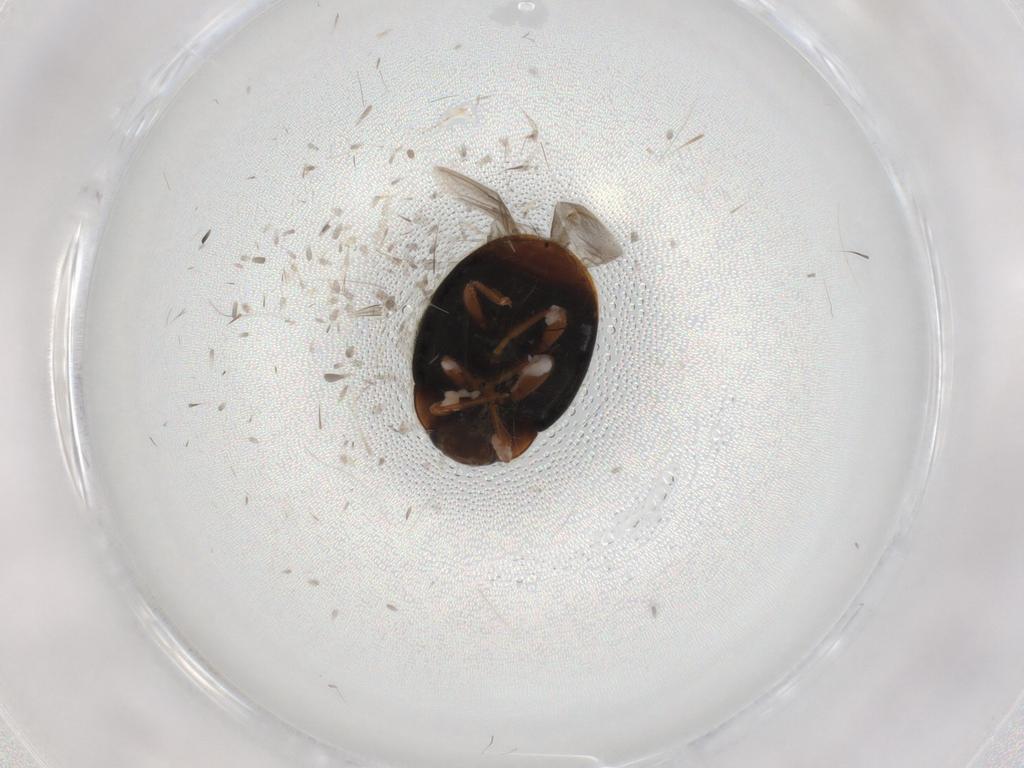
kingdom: Animalia
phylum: Arthropoda
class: Insecta
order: Coleoptera
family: Coccinellidae
